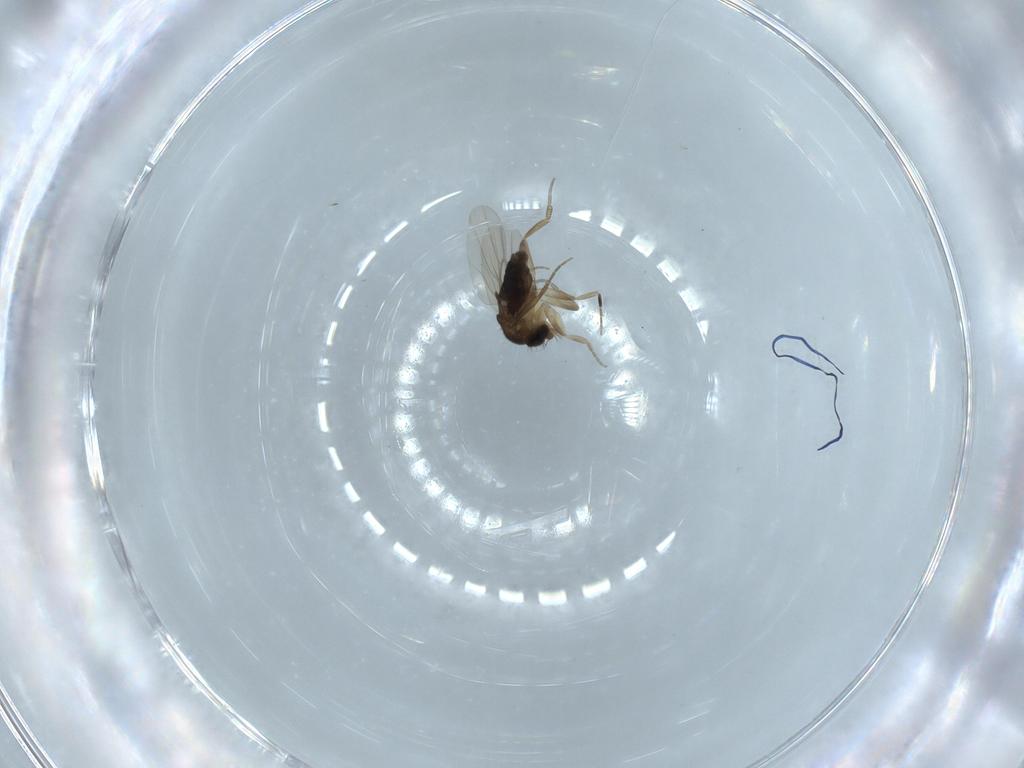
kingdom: Animalia
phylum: Arthropoda
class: Insecta
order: Diptera
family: Phoridae
